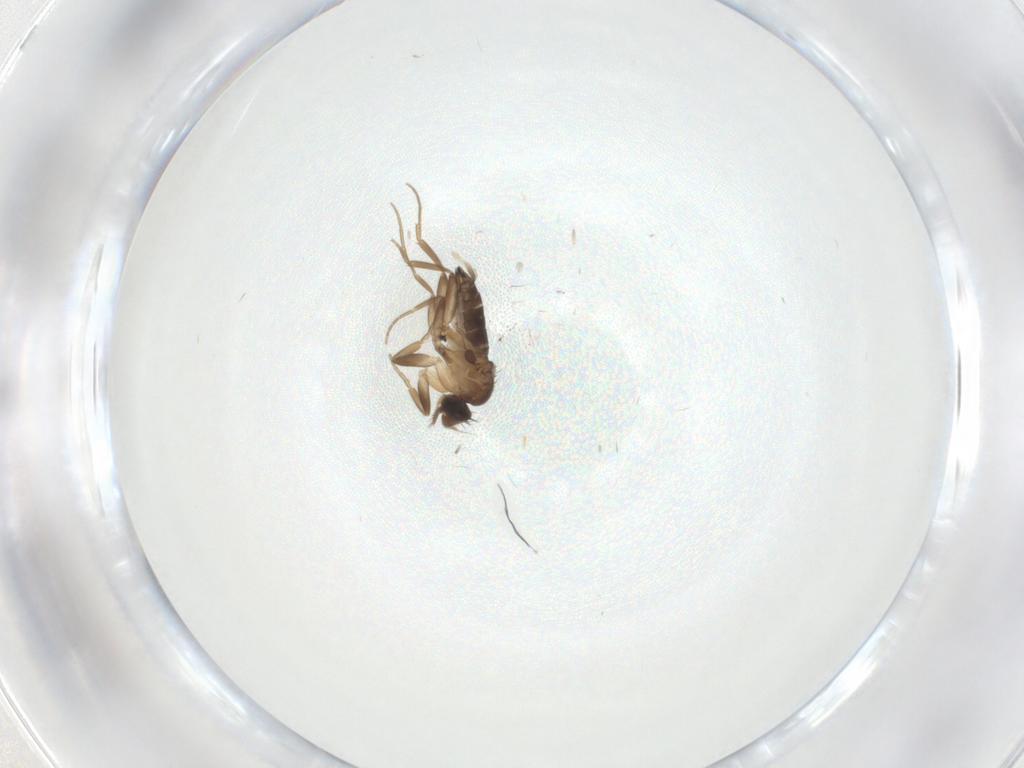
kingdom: Animalia
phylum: Arthropoda
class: Insecta
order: Diptera
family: Phoridae
